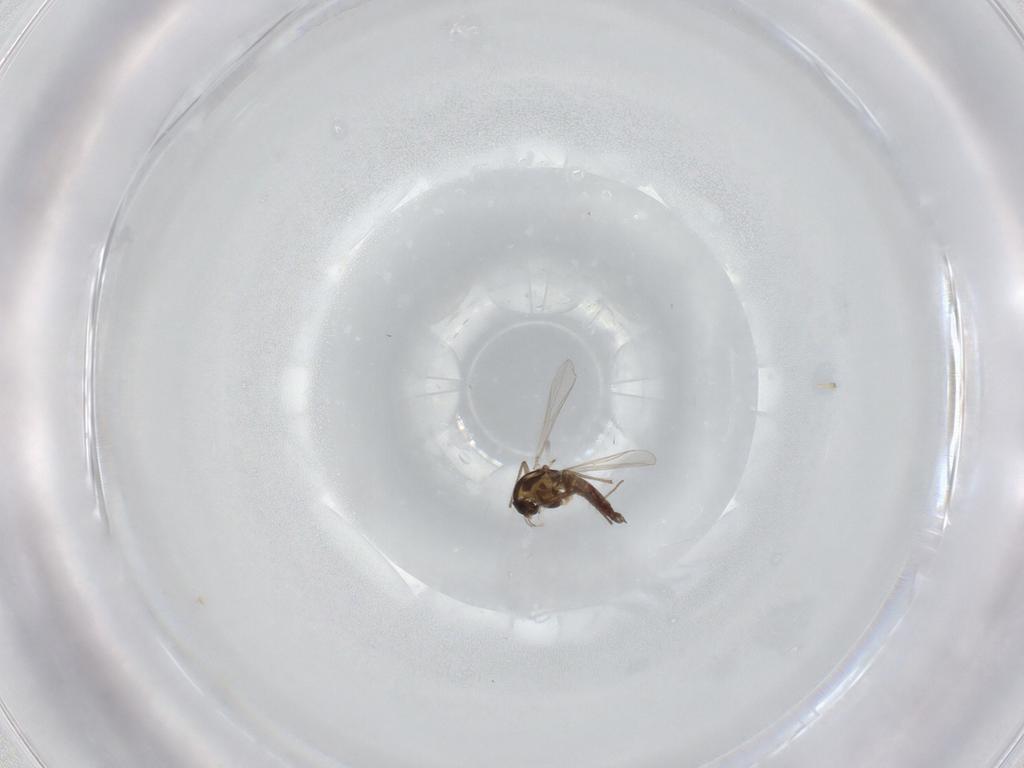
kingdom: Animalia
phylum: Arthropoda
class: Insecta
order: Diptera
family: Chironomidae
